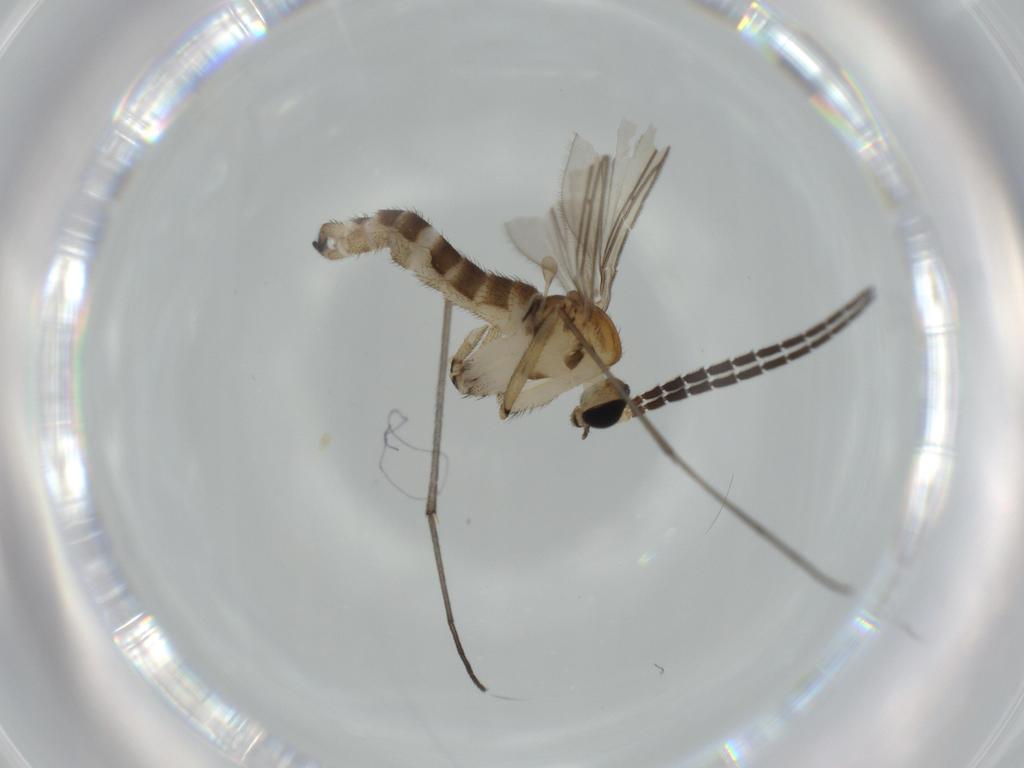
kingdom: Animalia
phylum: Arthropoda
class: Insecta
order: Diptera
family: Sciaridae
